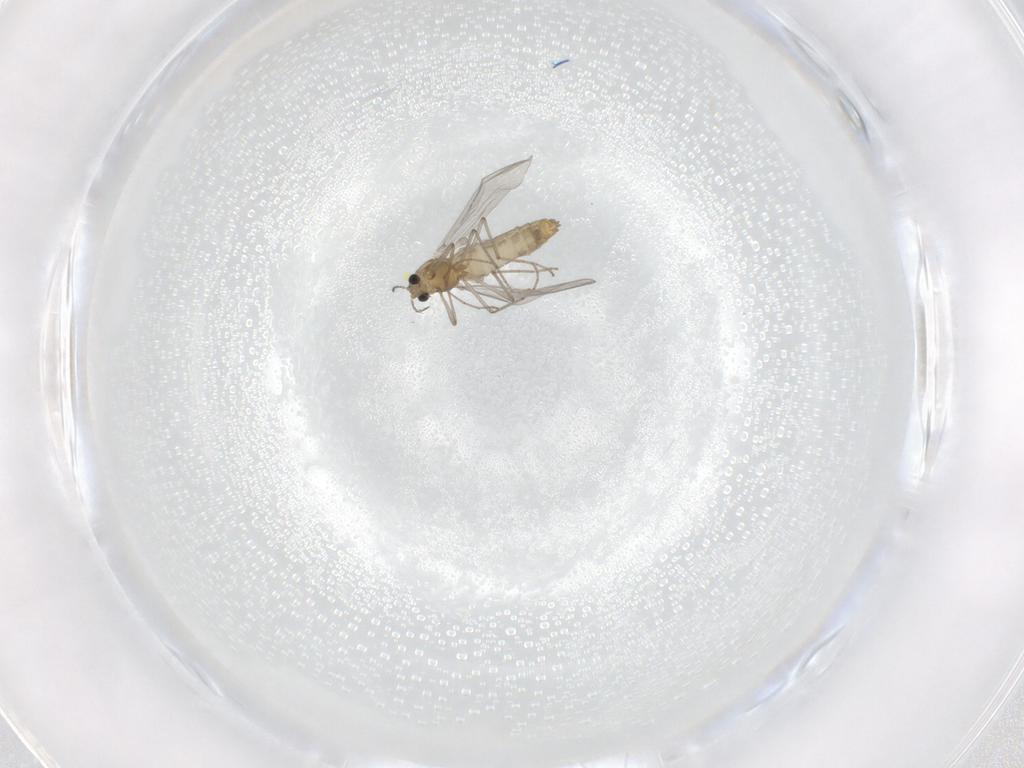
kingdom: Animalia
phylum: Arthropoda
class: Insecta
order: Diptera
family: Chironomidae
